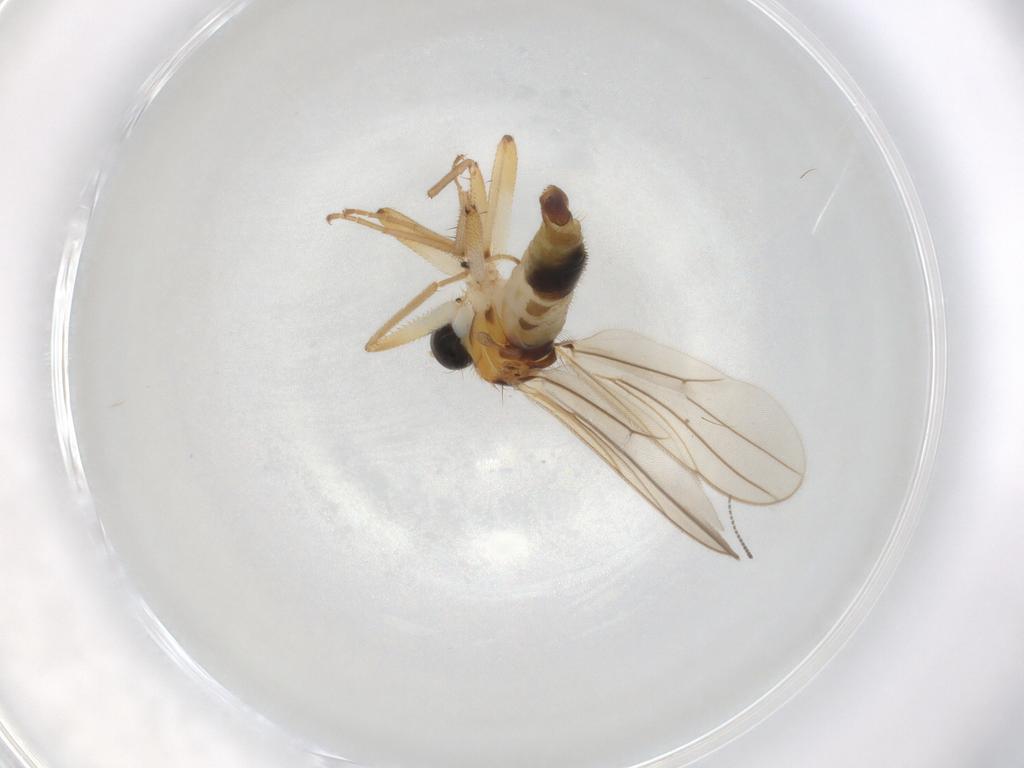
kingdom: Animalia
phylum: Arthropoda
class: Insecta
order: Diptera
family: Hybotidae
